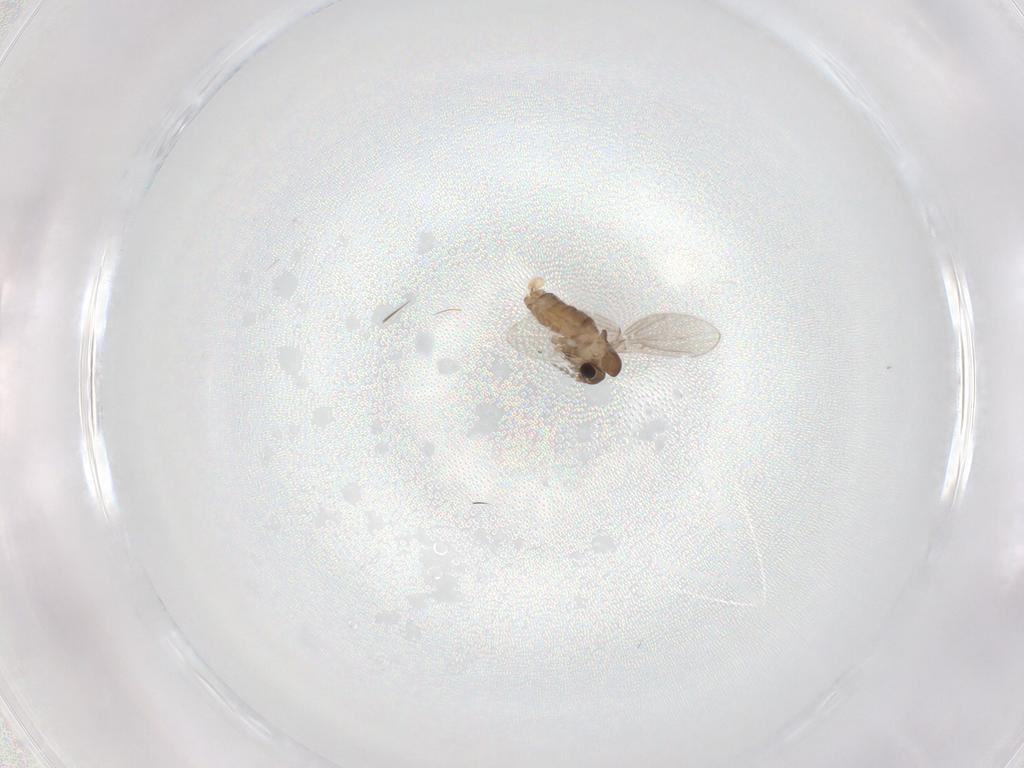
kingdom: Animalia
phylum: Arthropoda
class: Insecta
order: Diptera
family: Psychodidae
